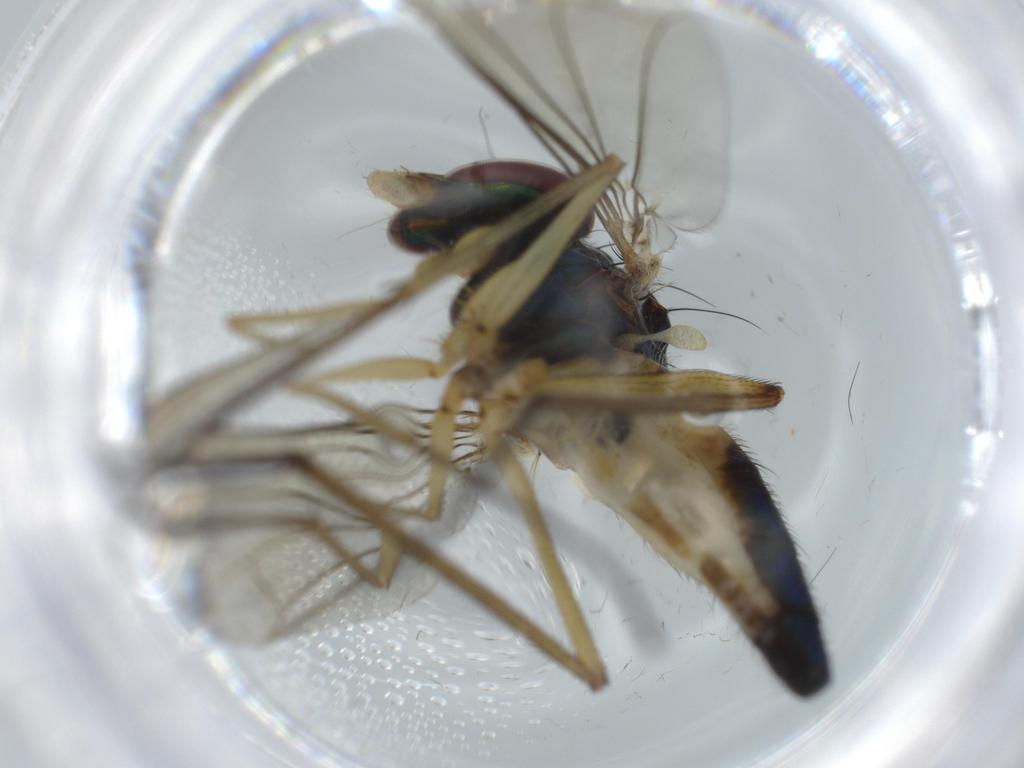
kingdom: Animalia
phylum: Arthropoda
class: Insecta
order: Diptera
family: Dolichopodidae
